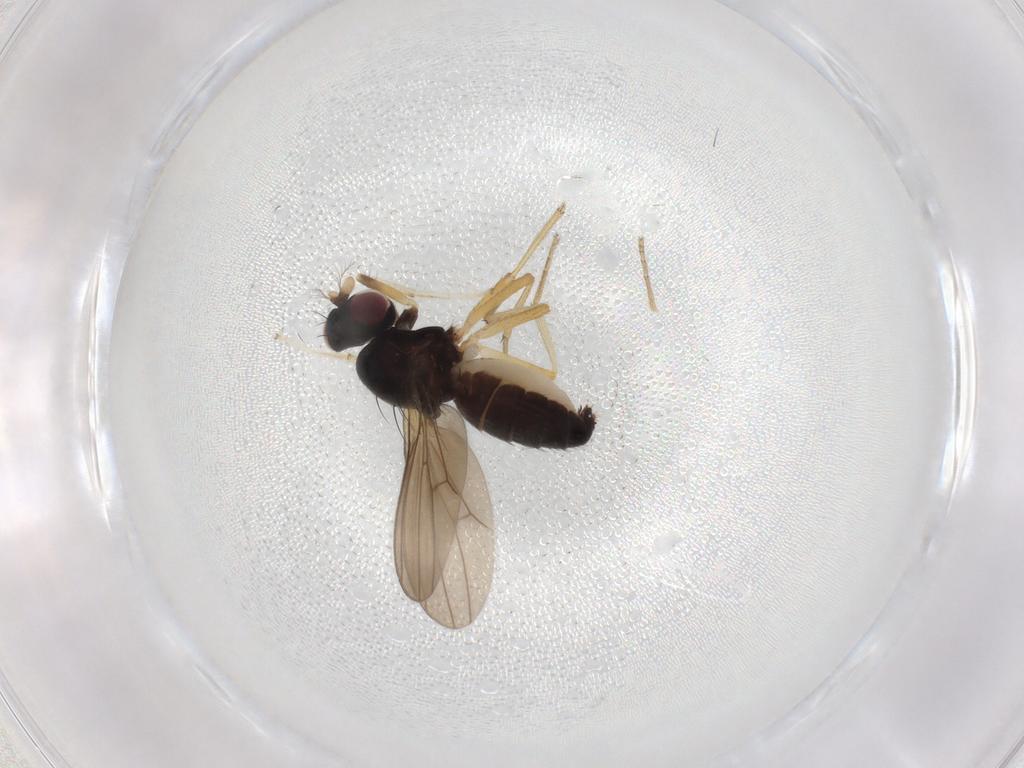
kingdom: Animalia
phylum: Arthropoda
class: Insecta
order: Diptera
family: Lauxaniidae
